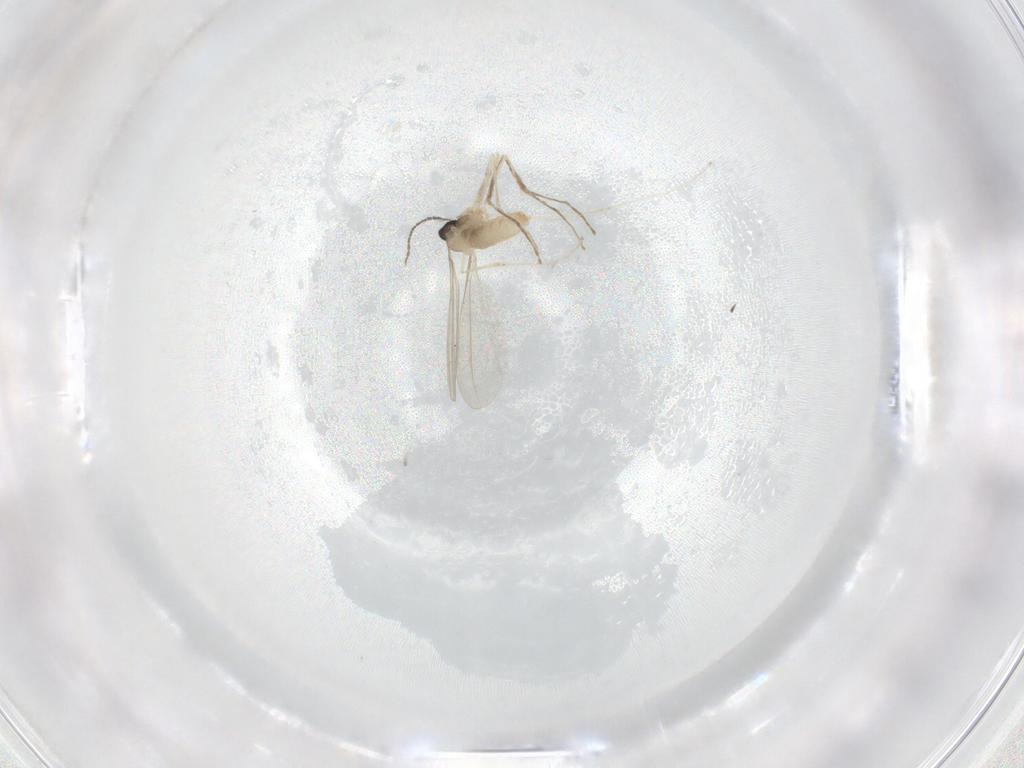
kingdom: Animalia
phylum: Arthropoda
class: Insecta
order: Diptera
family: Cecidomyiidae
